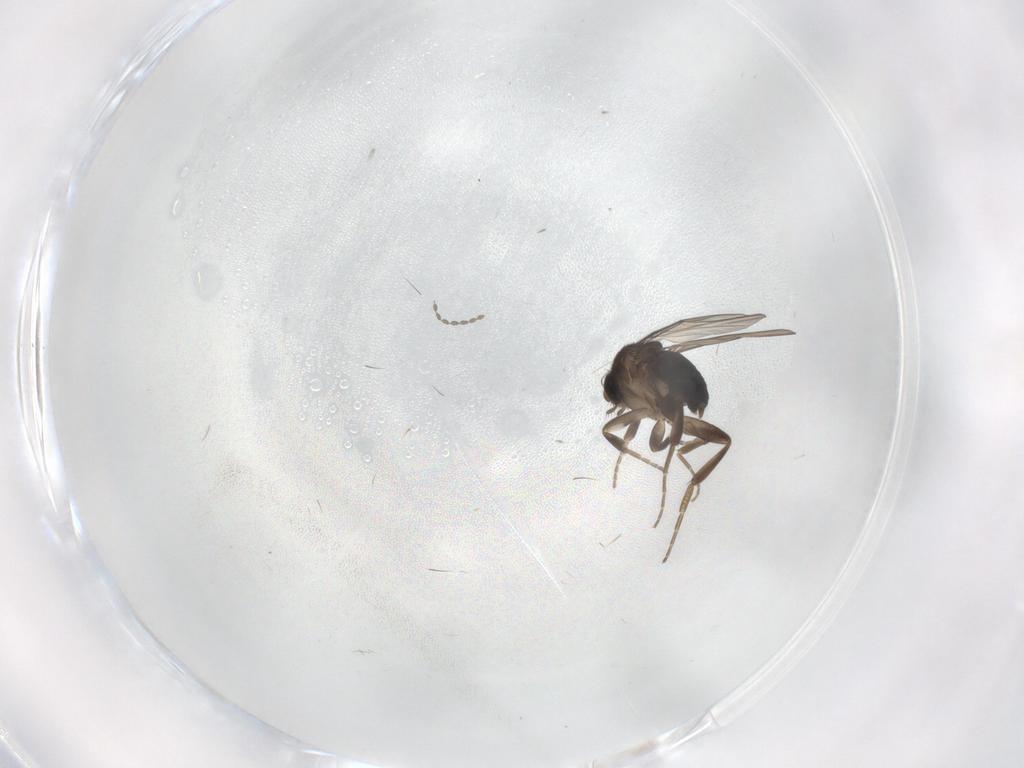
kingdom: Animalia
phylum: Arthropoda
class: Insecta
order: Diptera
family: Phoridae
